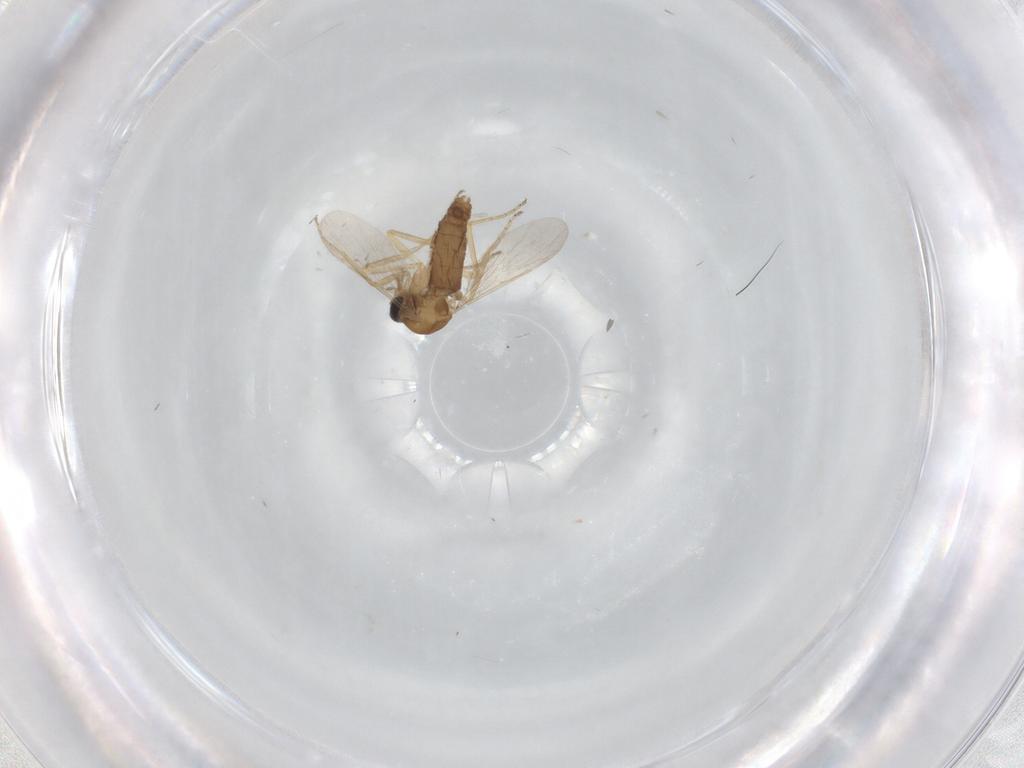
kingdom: Animalia
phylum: Arthropoda
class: Insecta
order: Diptera
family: Ceratopogonidae
